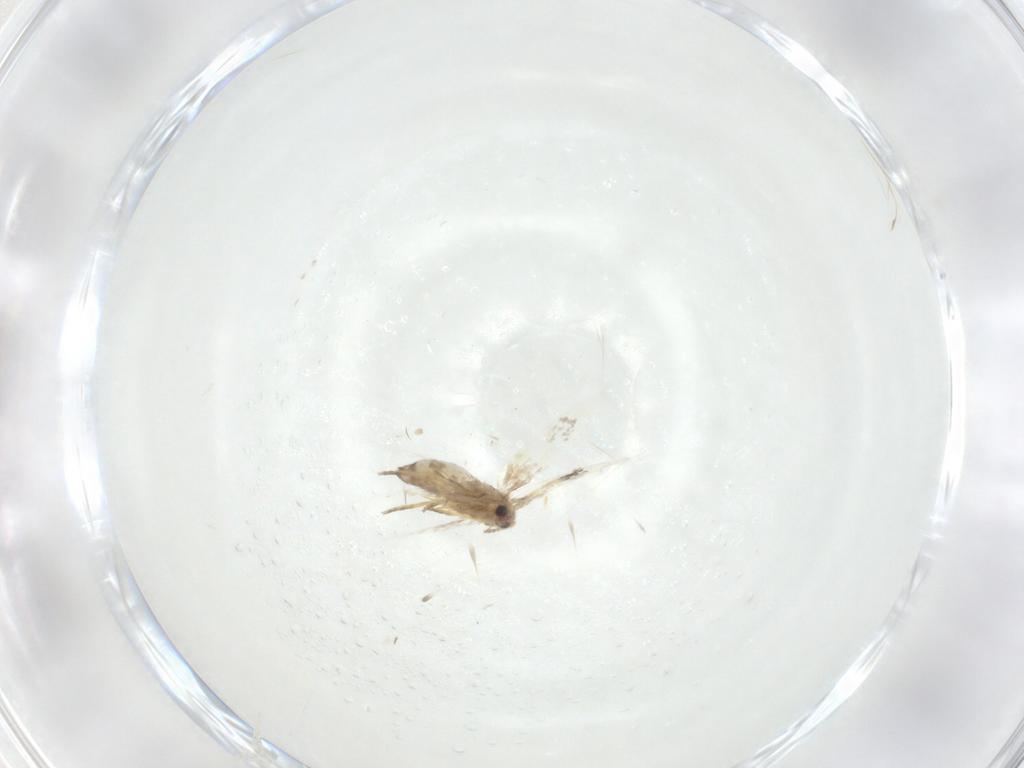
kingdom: Animalia
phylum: Arthropoda
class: Insecta
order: Lepidoptera
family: Nepticulidae
